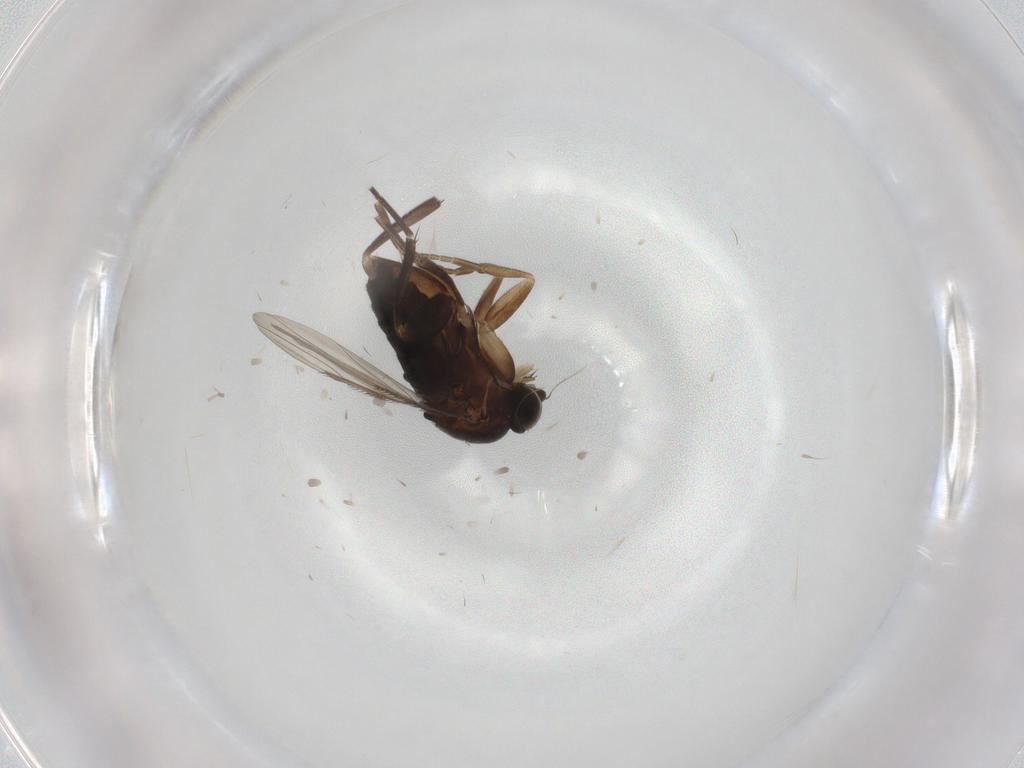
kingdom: Animalia
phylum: Arthropoda
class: Insecta
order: Diptera
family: Phoridae
